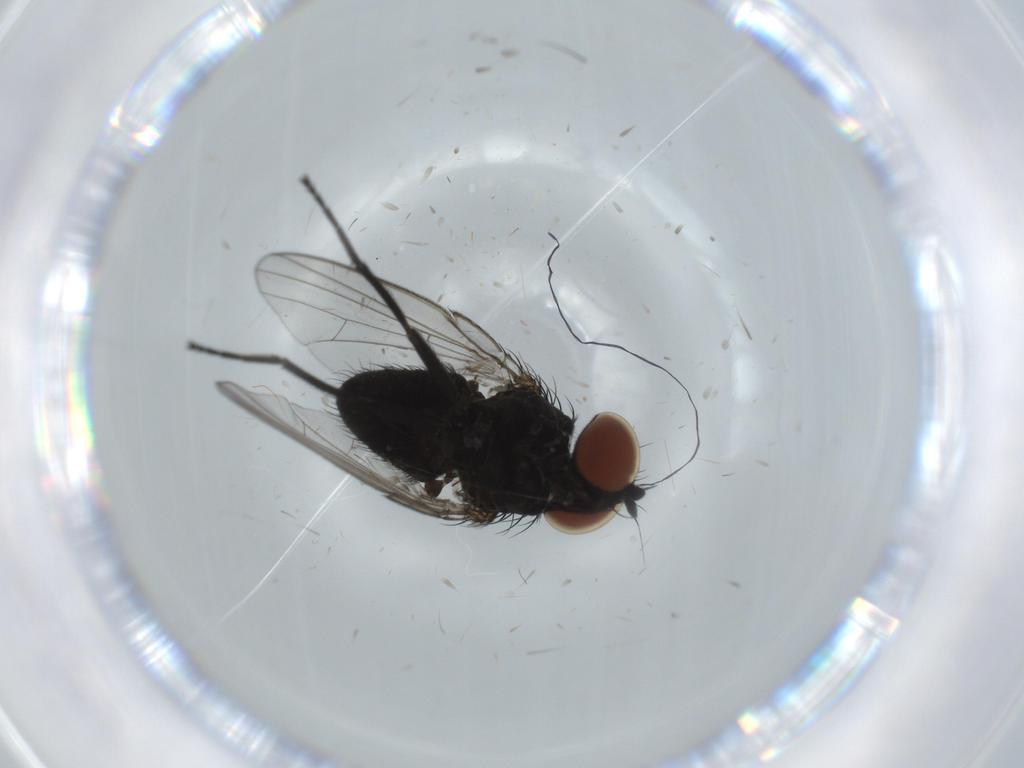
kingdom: Animalia
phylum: Arthropoda
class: Insecta
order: Diptera
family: Milichiidae
